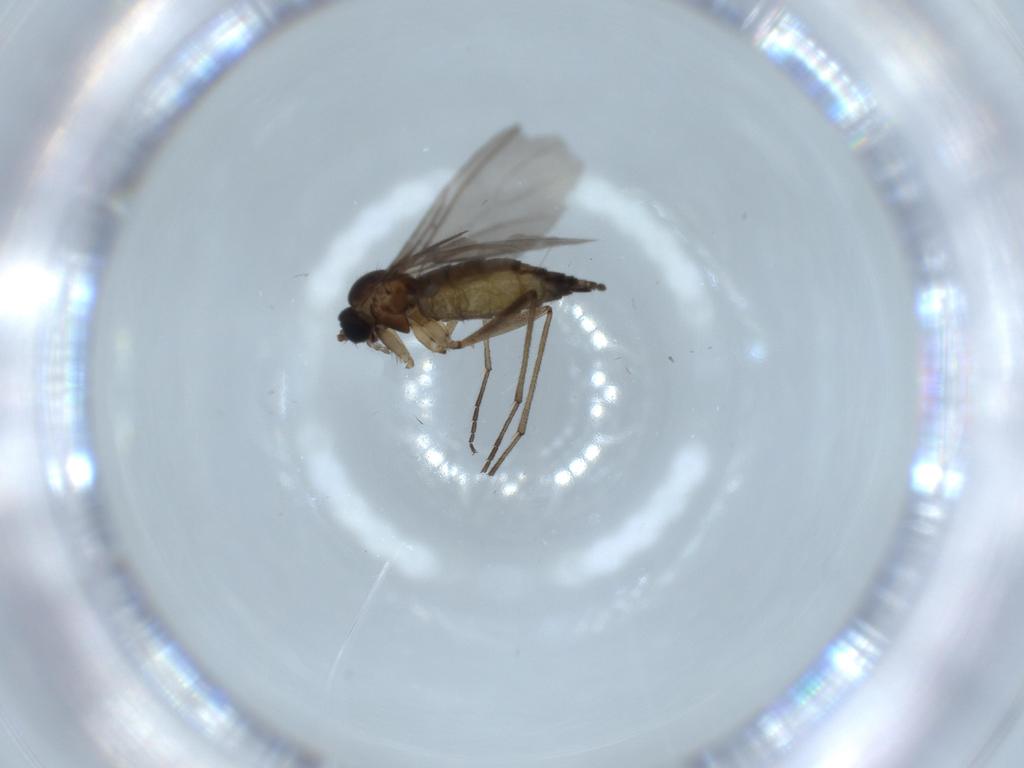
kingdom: Animalia
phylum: Arthropoda
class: Insecta
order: Diptera
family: Sciaridae
